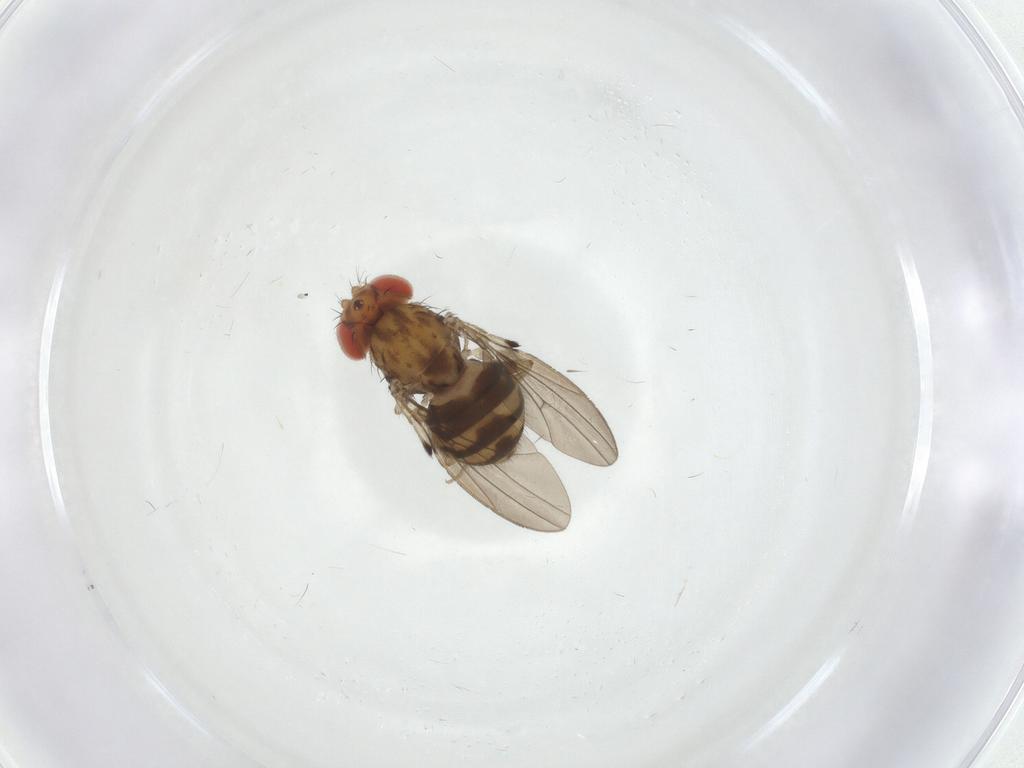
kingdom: Animalia
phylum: Arthropoda
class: Insecta
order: Diptera
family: Drosophilidae
